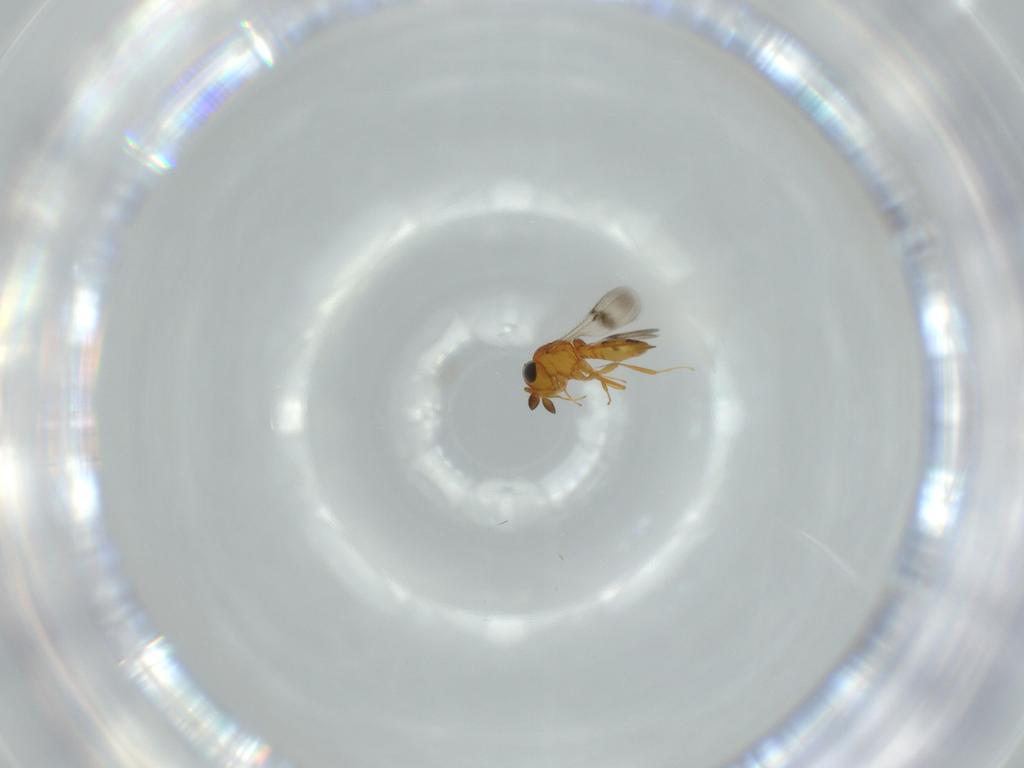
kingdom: Animalia
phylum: Arthropoda
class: Insecta
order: Hymenoptera
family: Scelionidae
